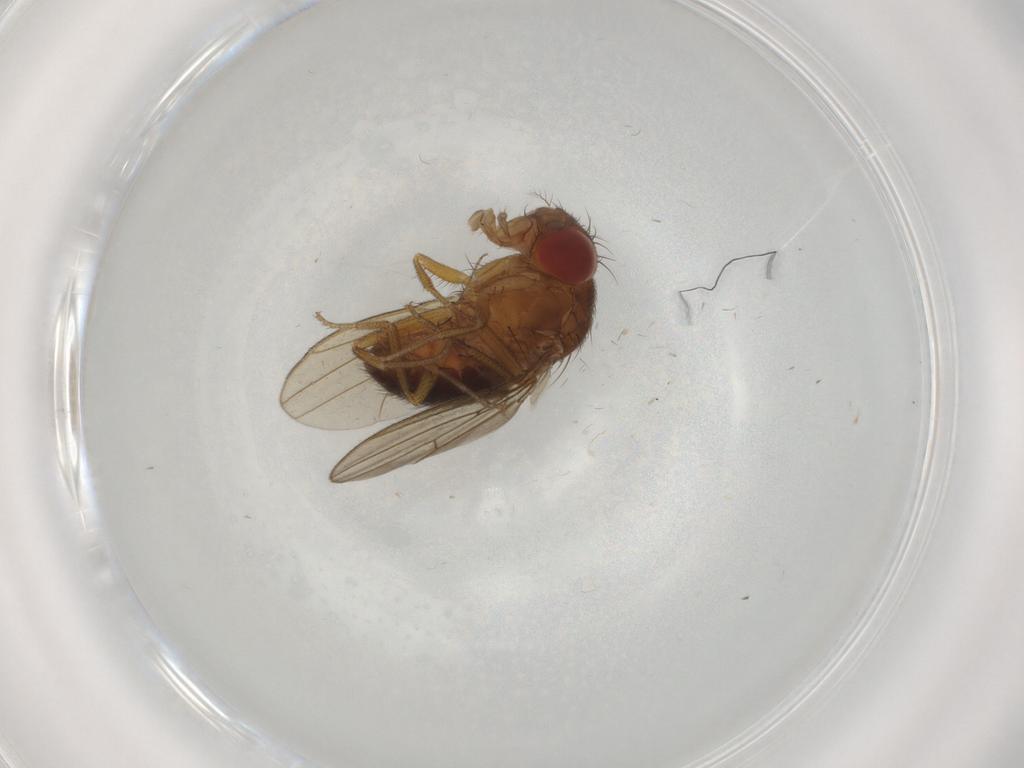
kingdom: Animalia
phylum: Arthropoda
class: Insecta
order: Diptera
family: Drosophilidae
